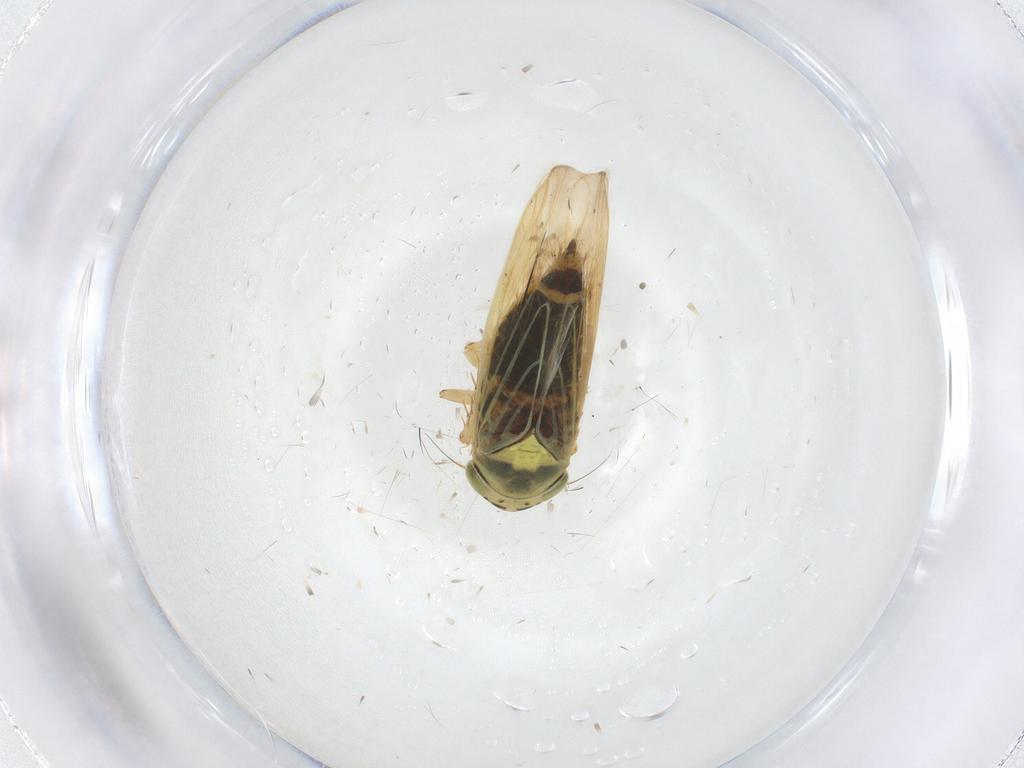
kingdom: Animalia
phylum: Arthropoda
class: Insecta
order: Hemiptera
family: Cicadellidae
